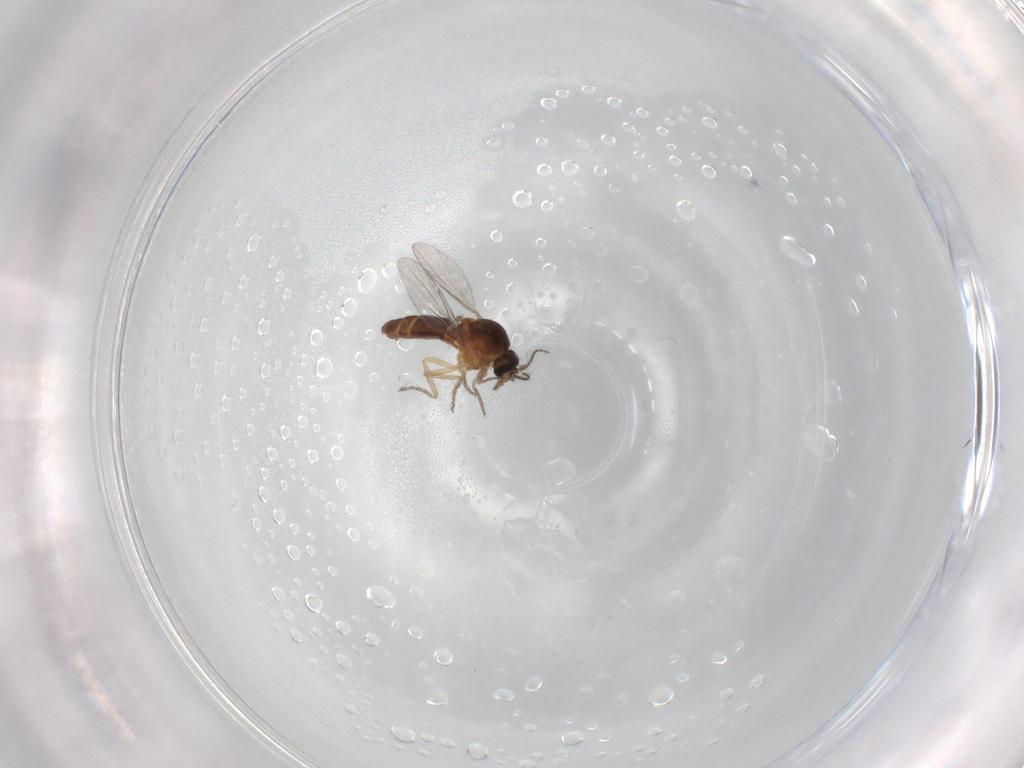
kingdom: Animalia
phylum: Arthropoda
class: Insecta
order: Diptera
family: Ceratopogonidae
